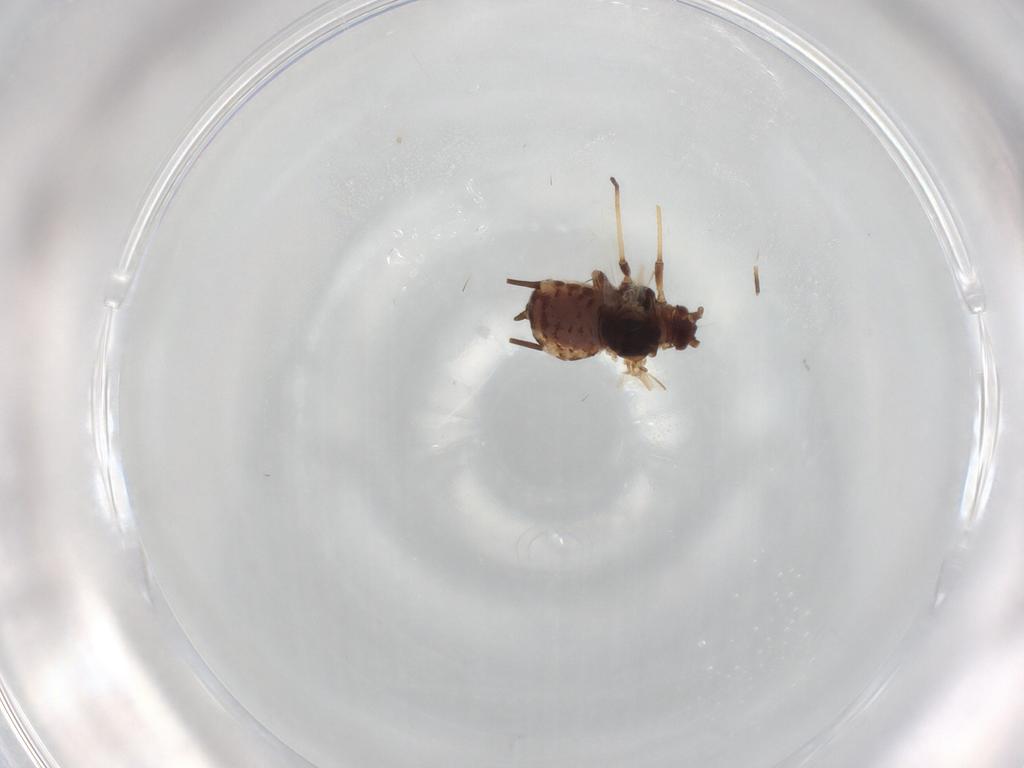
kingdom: Animalia
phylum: Arthropoda
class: Insecta
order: Hemiptera
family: Aphididae
